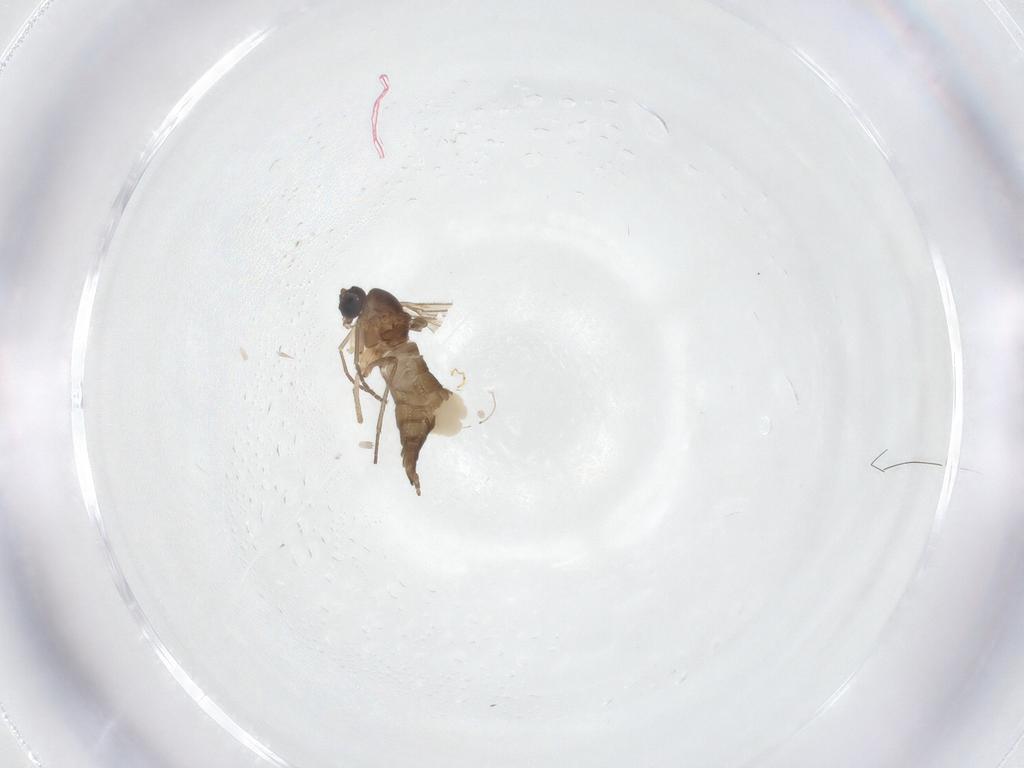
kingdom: Animalia
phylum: Arthropoda
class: Insecta
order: Diptera
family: Sciaridae
